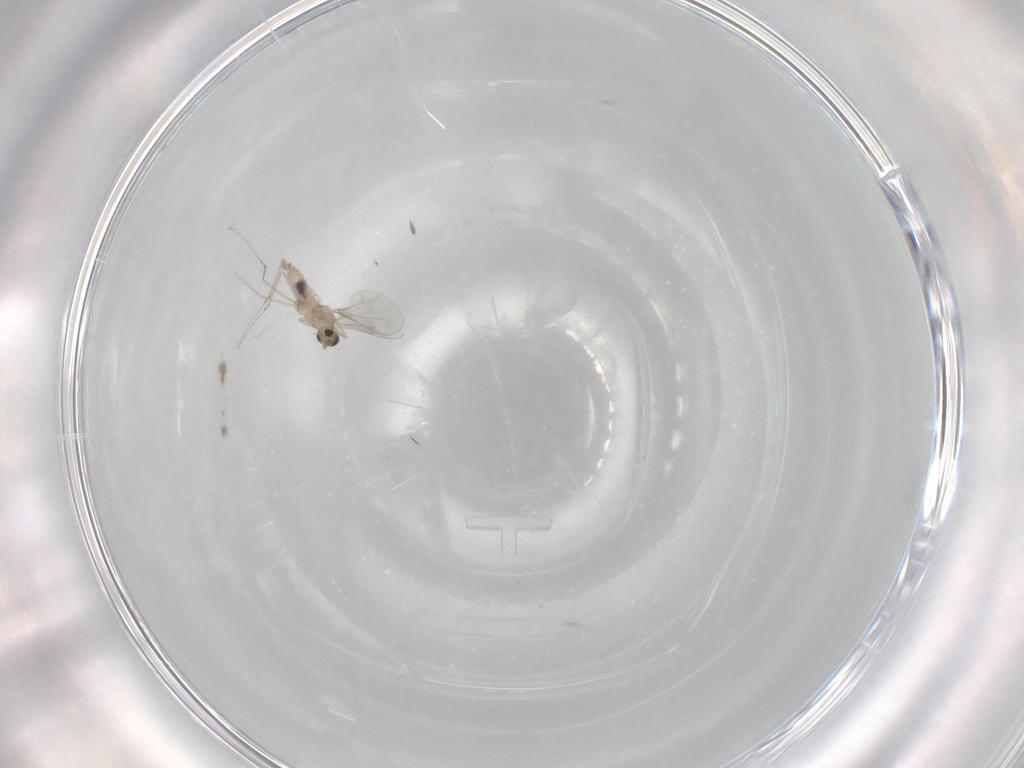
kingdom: Animalia
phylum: Arthropoda
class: Insecta
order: Diptera
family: Cecidomyiidae
